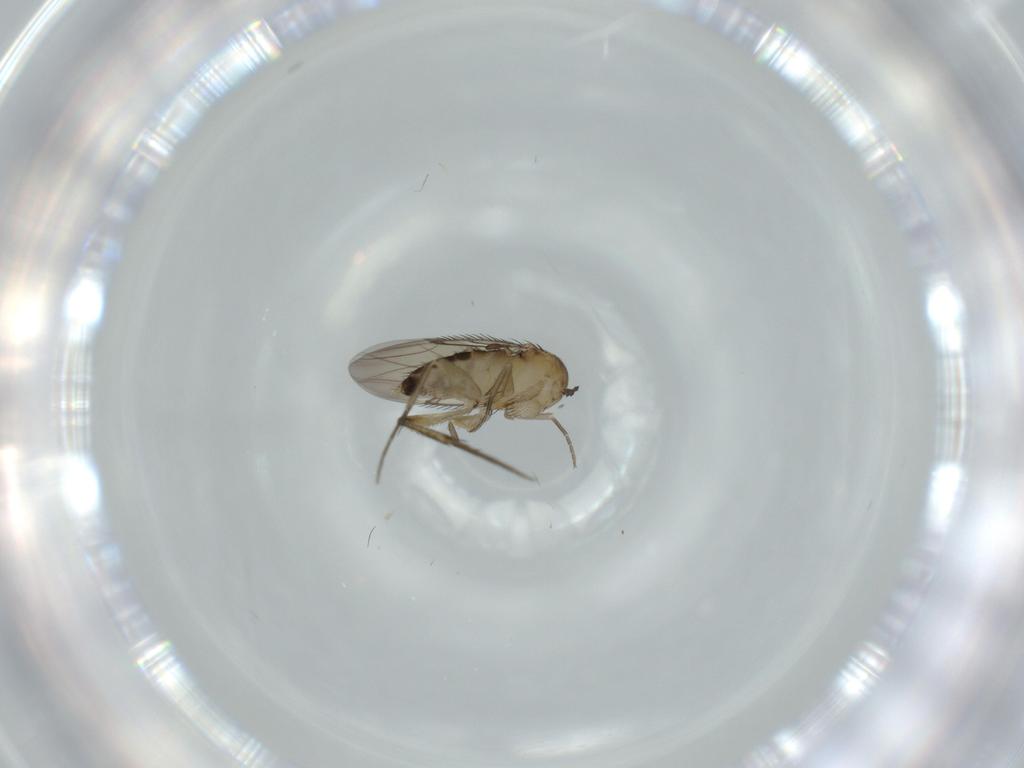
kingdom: Animalia
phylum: Arthropoda
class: Insecta
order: Diptera
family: Phoridae
